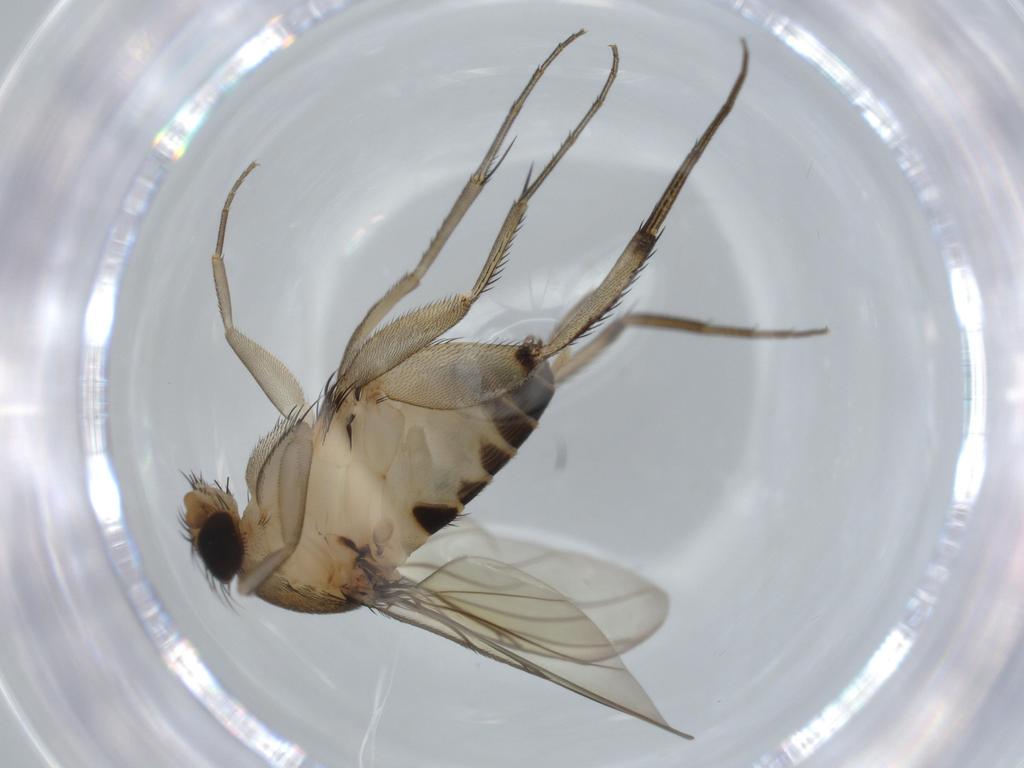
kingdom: Animalia
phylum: Arthropoda
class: Insecta
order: Diptera
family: Phoridae
